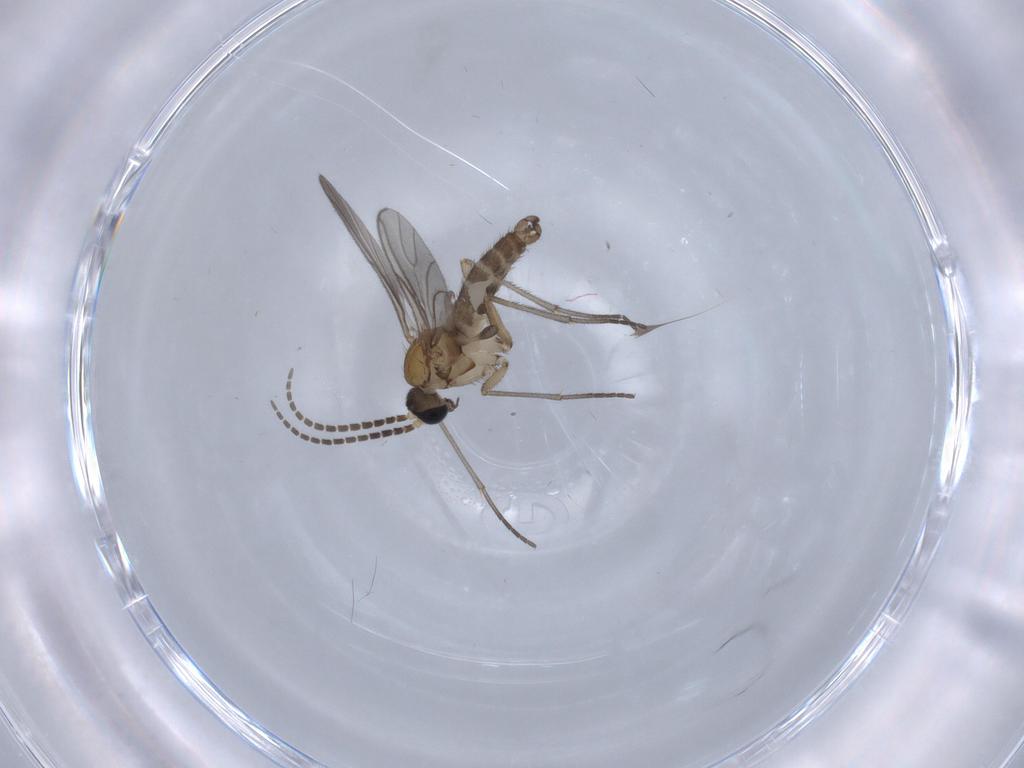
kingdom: Animalia
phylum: Arthropoda
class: Insecta
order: Diptera
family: Sciaridae
